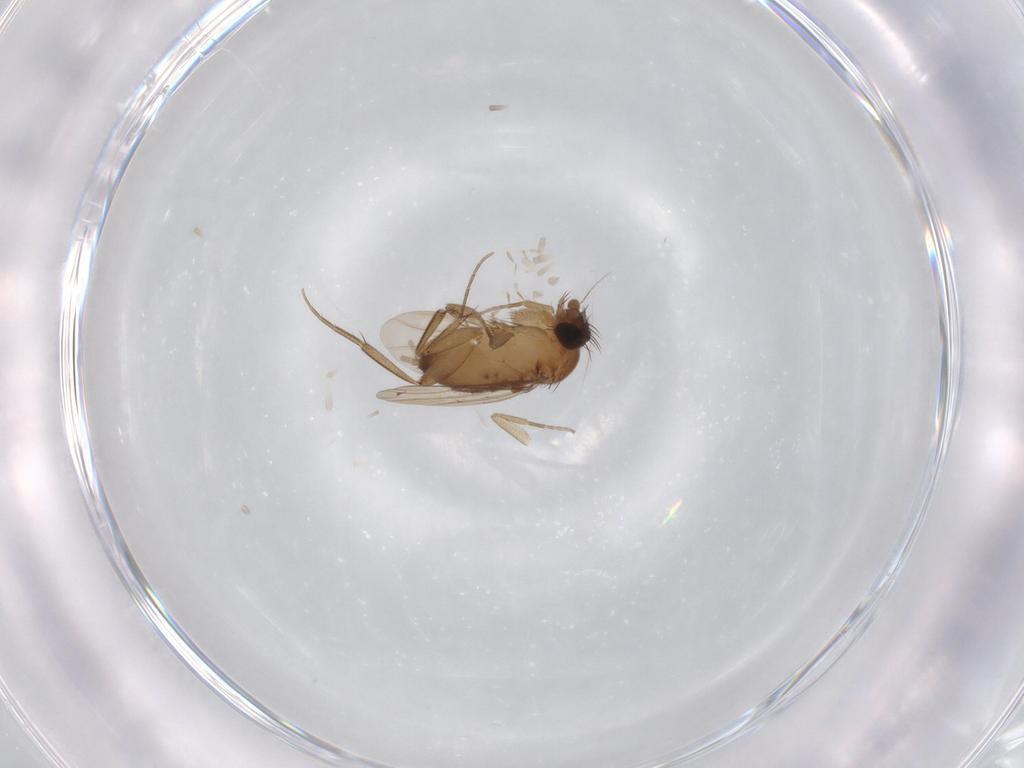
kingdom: Animalia
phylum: Arthropoda
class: Insecta
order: Diptera
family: Phoridae
